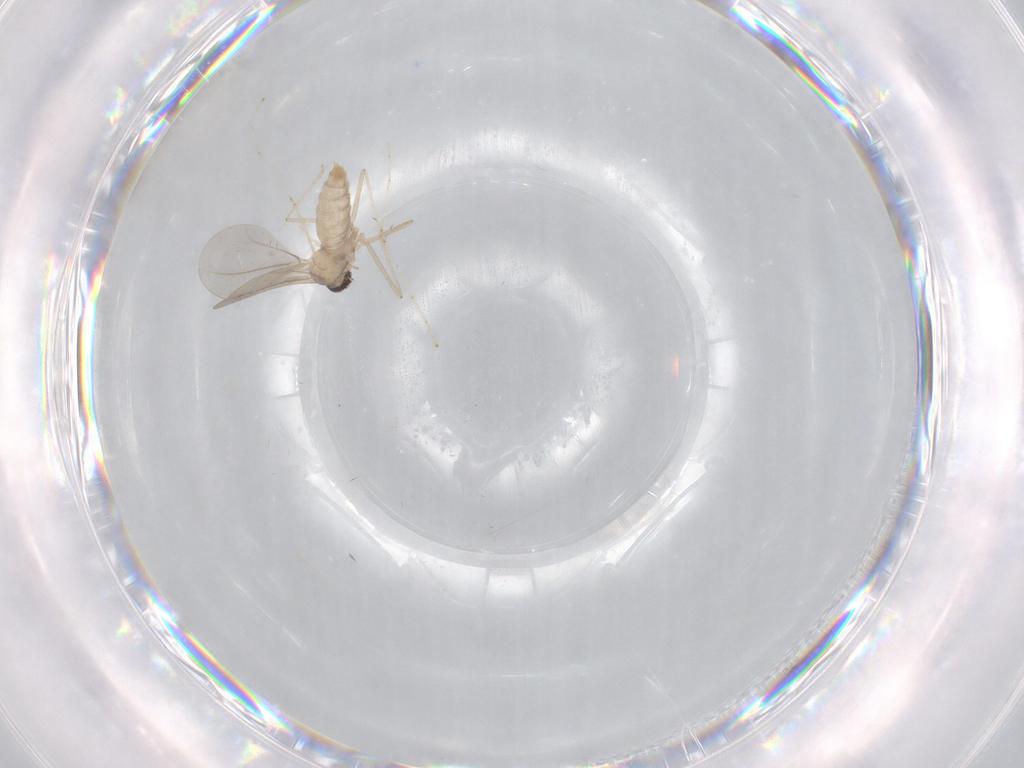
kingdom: Animalia
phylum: Arthropoda
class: Insecta
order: Diptera
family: Cecidomyiidae
